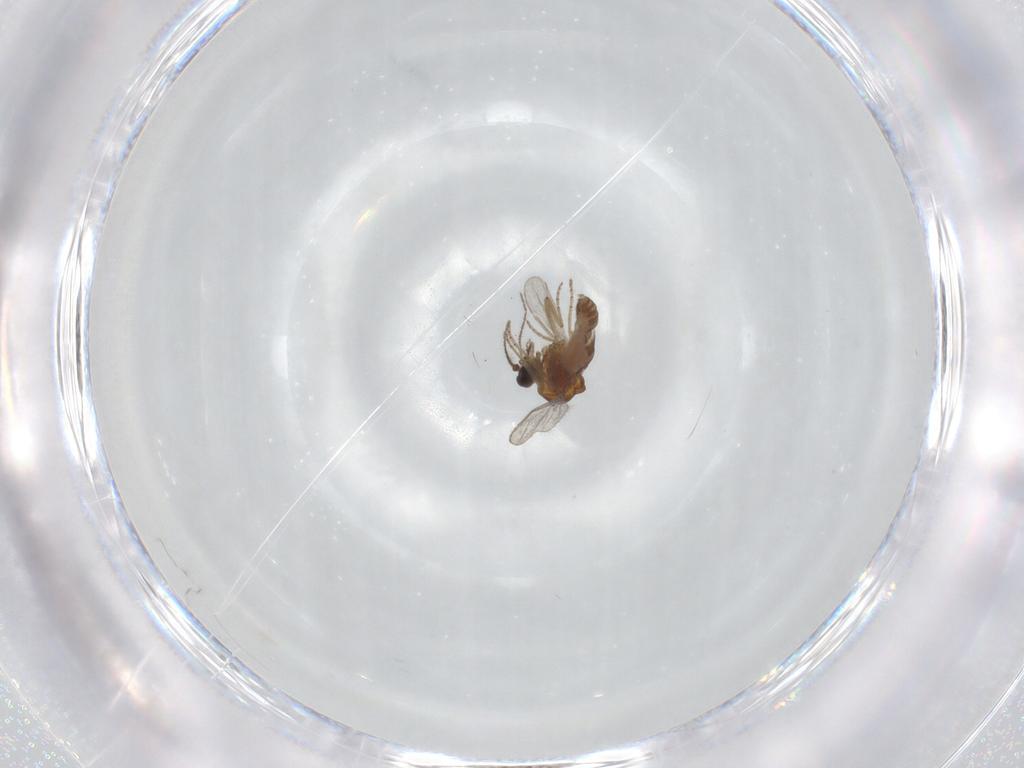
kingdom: Animalia
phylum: Arthropoda
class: Insecta
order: Diptera
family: Ceratopogonidae
